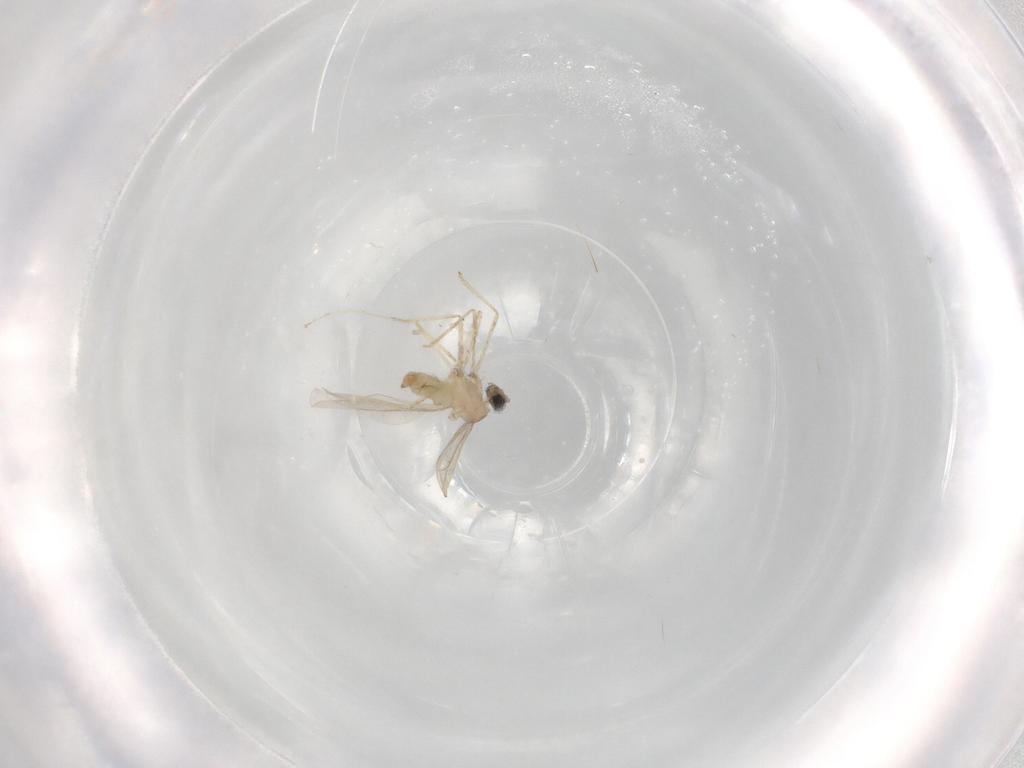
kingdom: Animalia
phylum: Arthropoda
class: Insecta
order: Diptera
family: Cecidomyiidae
